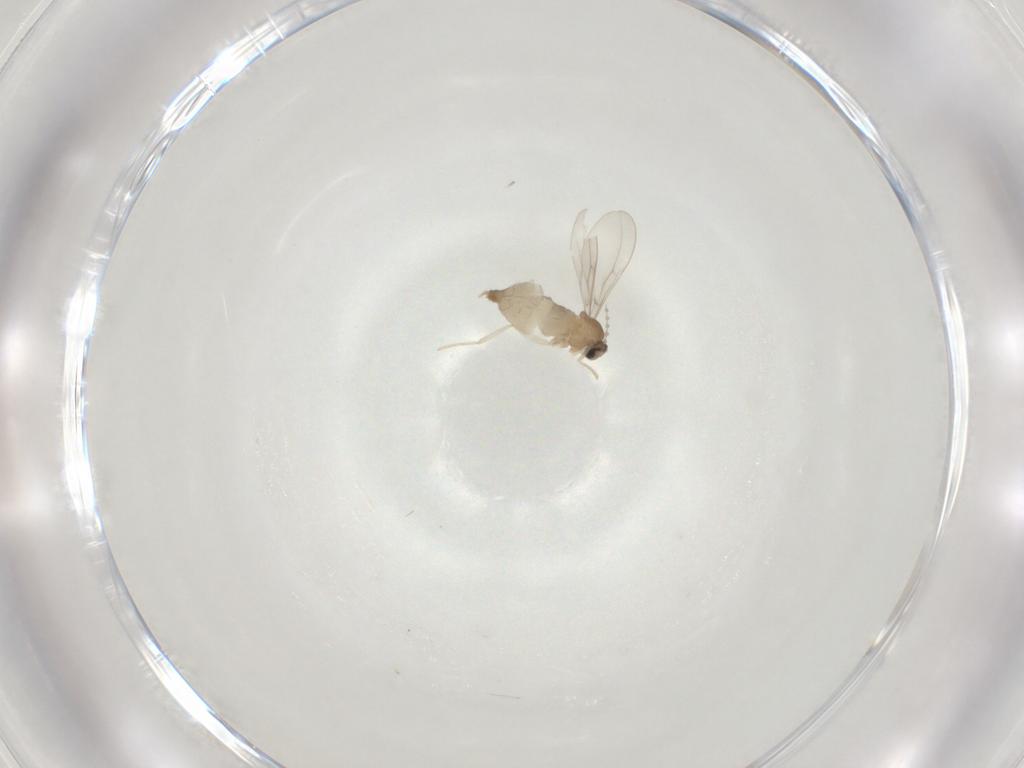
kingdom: Animalia
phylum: Arthropoda
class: Insecta
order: Diptera
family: Cecidomyiidae
